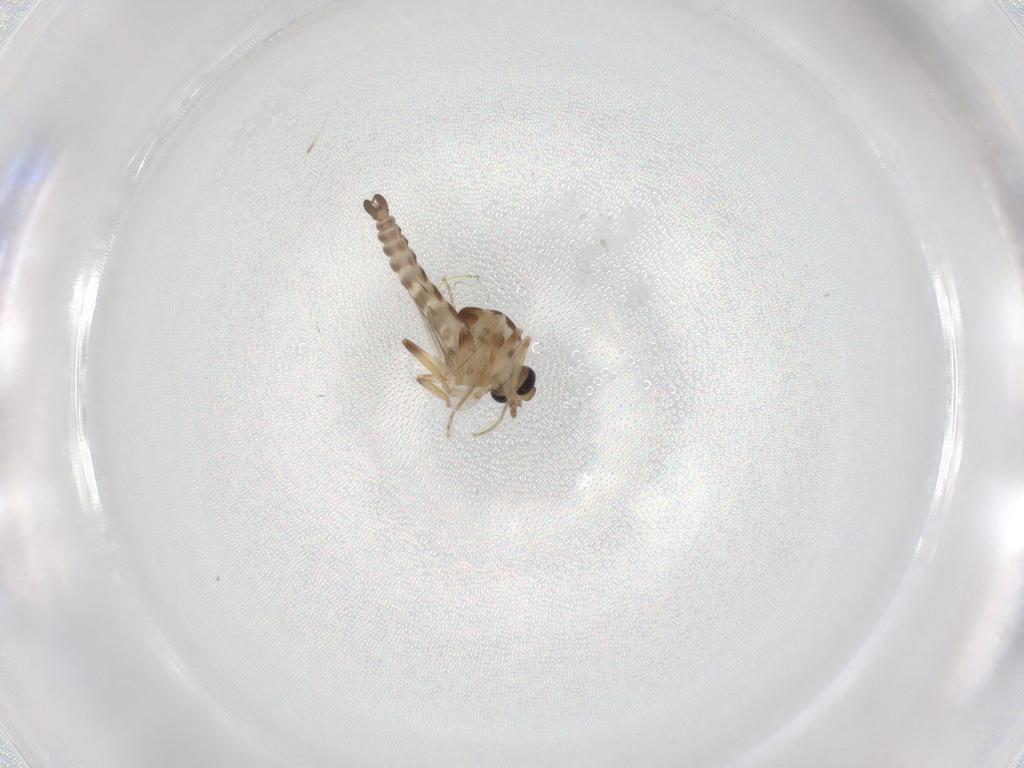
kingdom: Animalia
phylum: Arthropoda
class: Insecta
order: Diptera
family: Ceratopogonidae
